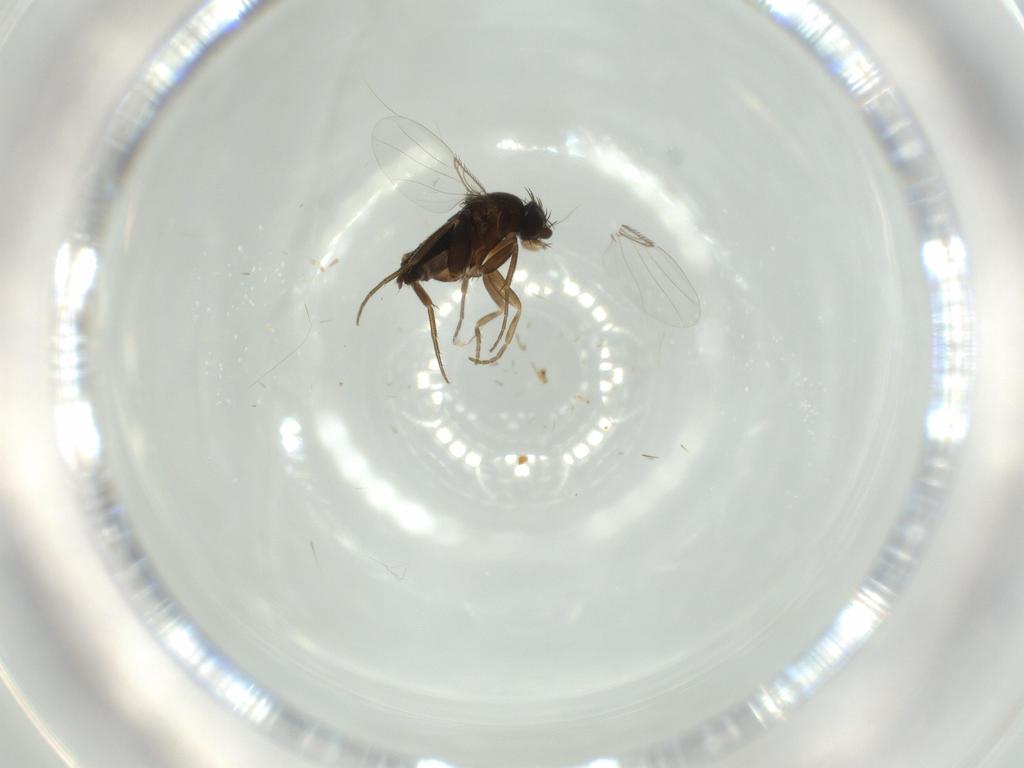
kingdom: Animalia
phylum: Arthropoda
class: Insecta
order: Diptera
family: Phoridae
